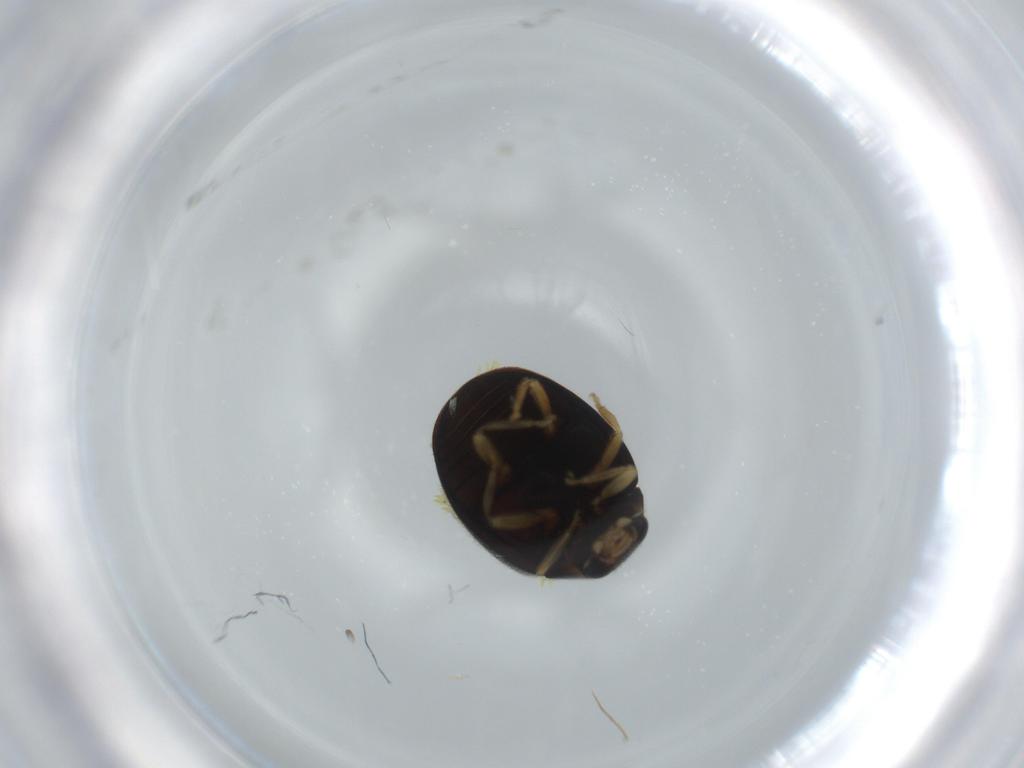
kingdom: Animalia
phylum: Arthropoda
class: Insecta
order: Coleoptera
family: Coccinellidae
